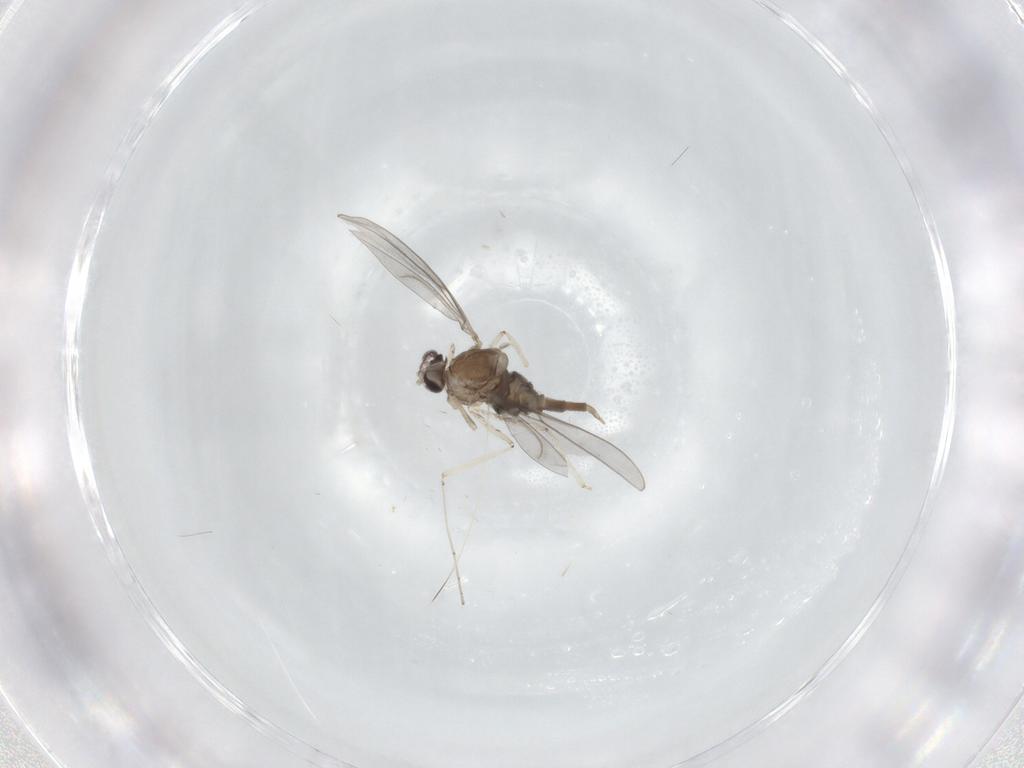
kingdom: Animalia
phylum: Arthropoda
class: Insecta
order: Diptera
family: Cecidomyiidae
